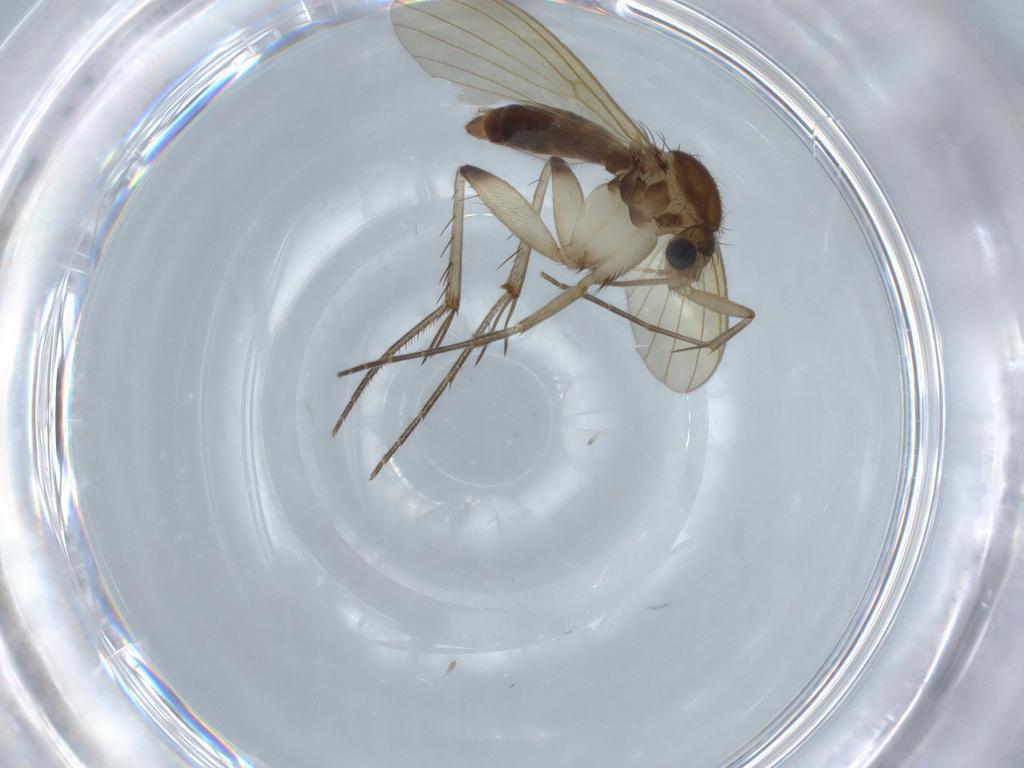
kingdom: Animalia
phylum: Arthropoda
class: Insecta
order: Diptera
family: Mycetophilidae
